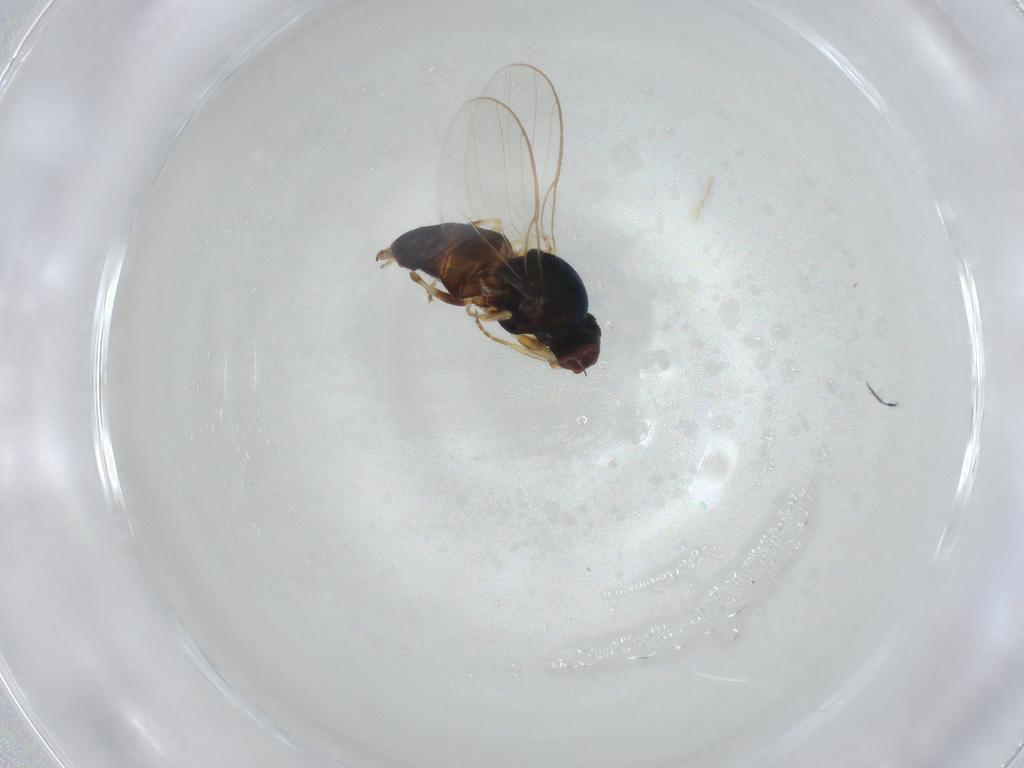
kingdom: Animalia
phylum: Arthropoda
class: Insecta
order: Diptera
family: Chloropidae
